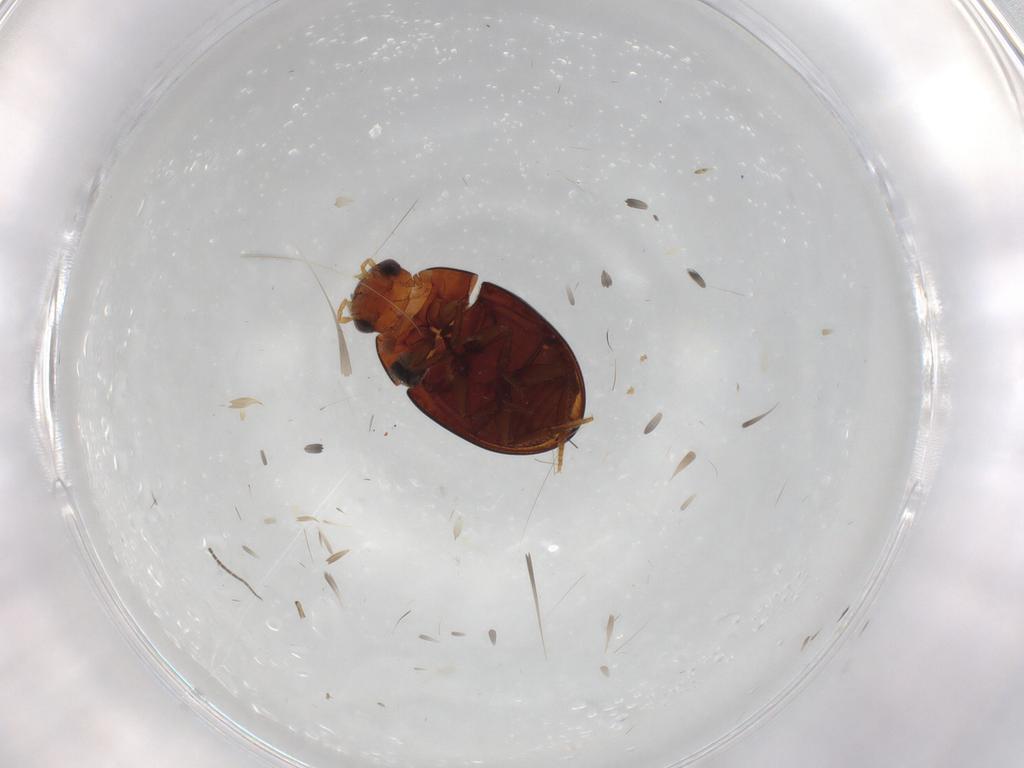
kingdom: Animalia
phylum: Arthropoda
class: Insecta
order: Coleoptera
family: Hydrophilidae
